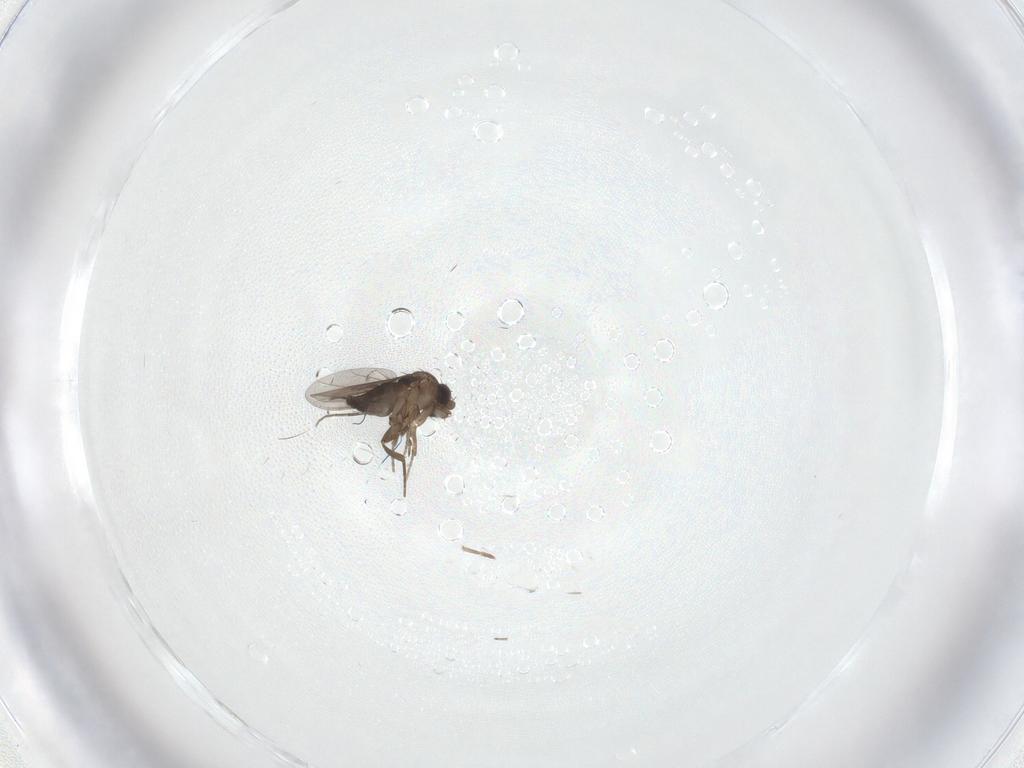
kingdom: Animalia
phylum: Arthropoda
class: Insecta
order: Diptera
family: Phoridae
